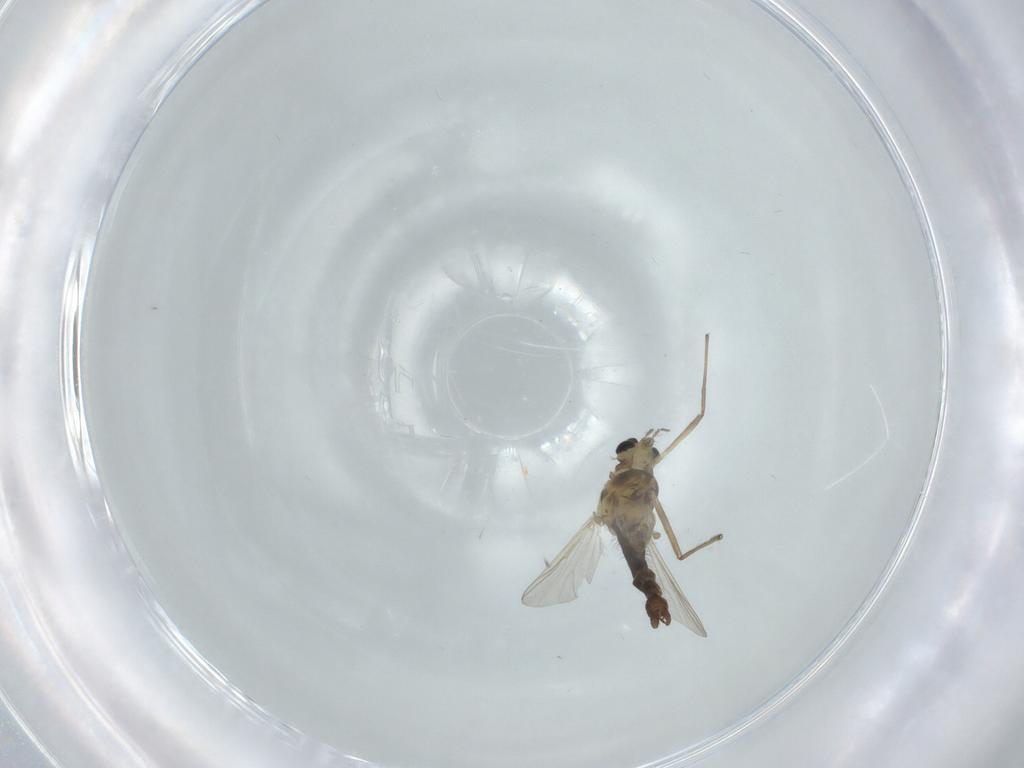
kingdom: Animalia
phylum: Arthropoda
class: Insecta
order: Diptera
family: Chironomidae
